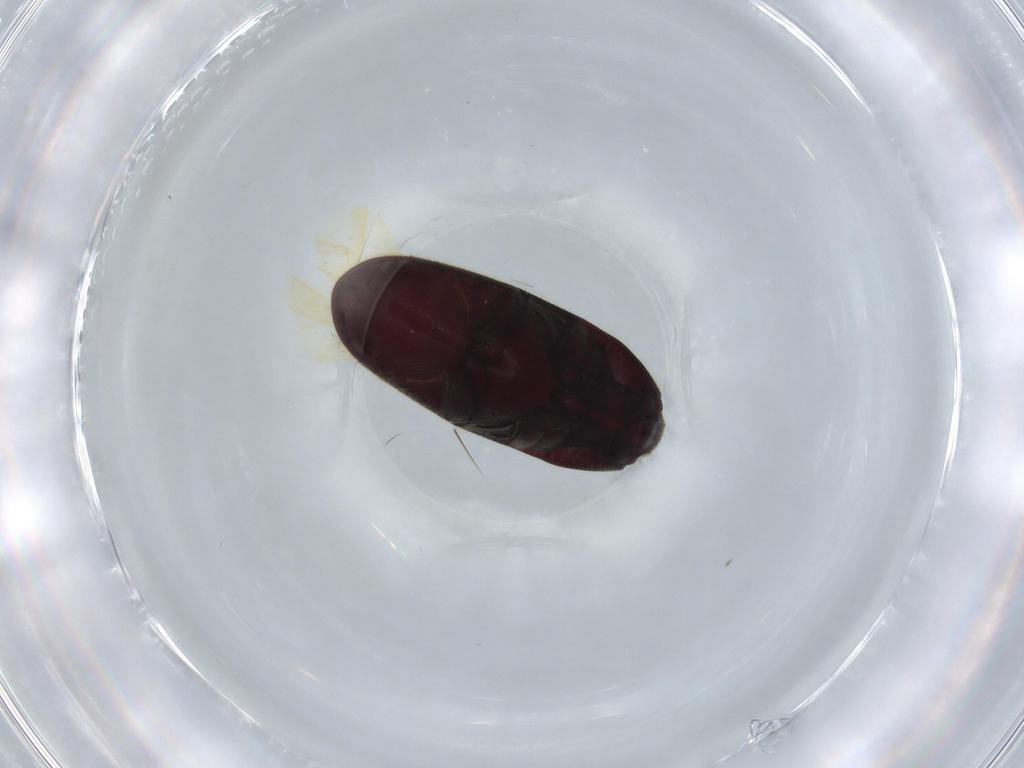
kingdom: Animalia
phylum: Arthropoda
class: Insecta
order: Coleoptera
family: Throscidae
